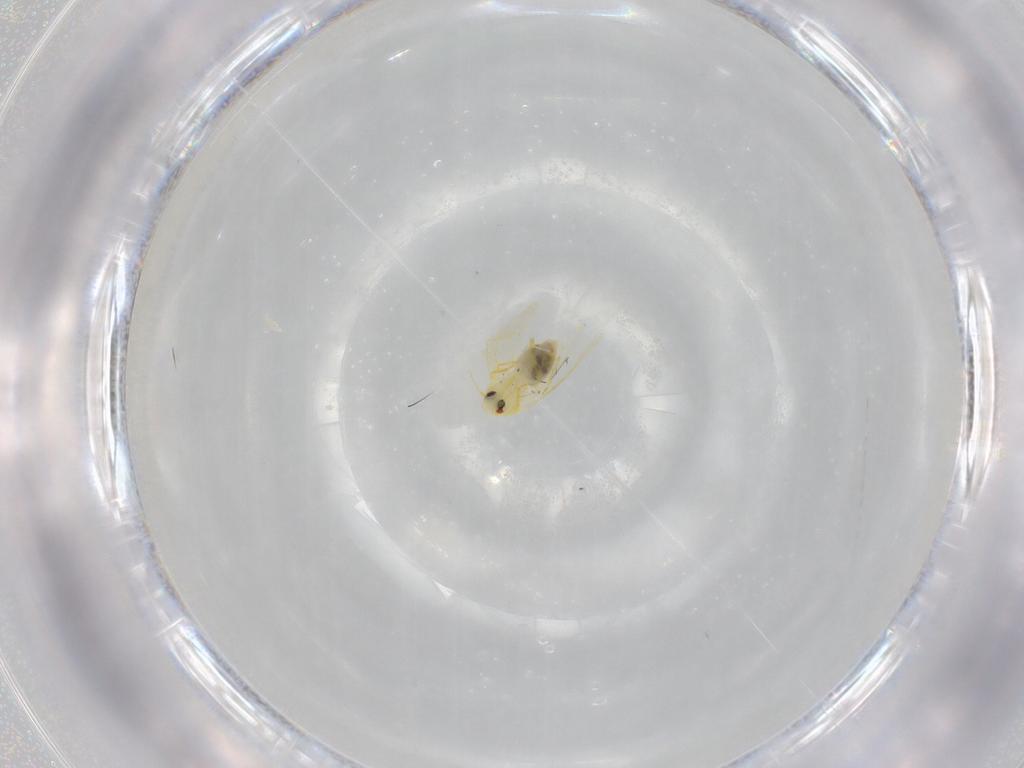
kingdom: Animalia
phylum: Arthropoda
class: Insecta
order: Hemiptera
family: Aleyrodidae
